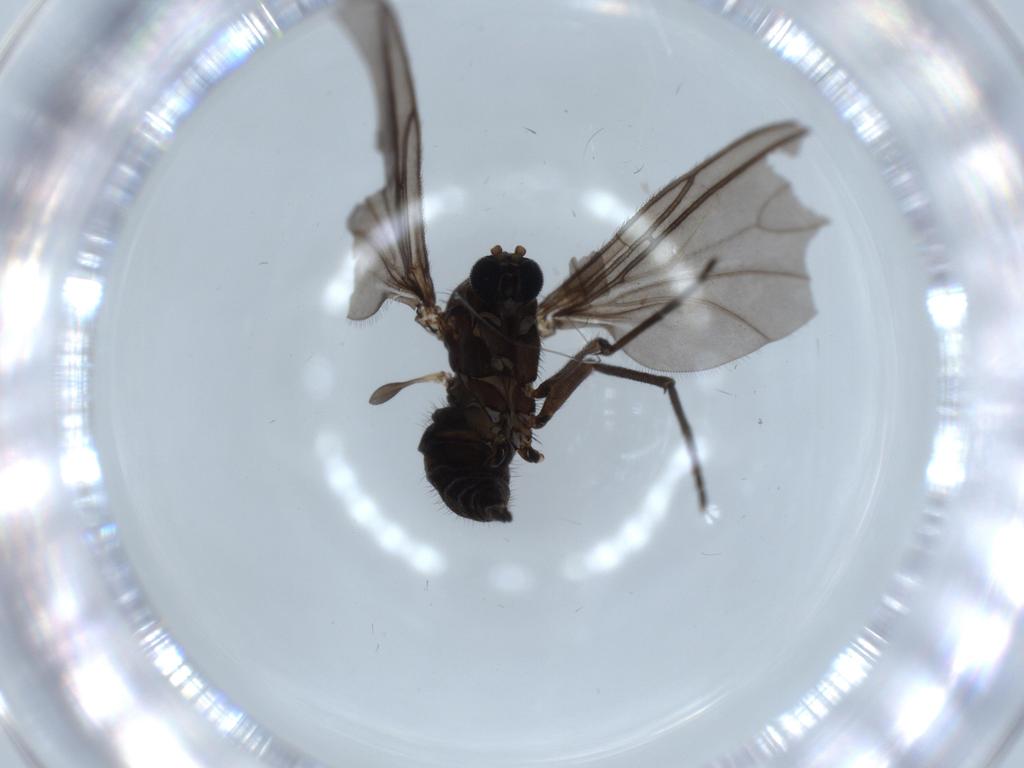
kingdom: Animalia
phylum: Arthropoda
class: Insecta
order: Diptera
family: Sciaridae
